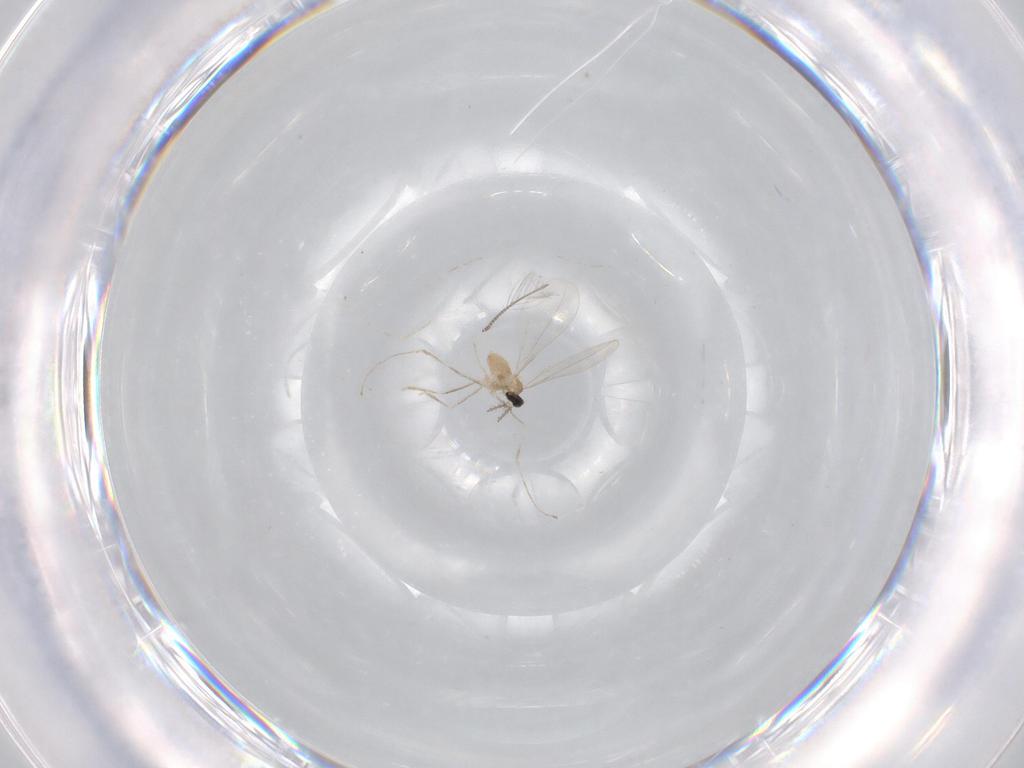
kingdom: Animalia
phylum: Arthropoda
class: Insecta
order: Diptera
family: Cecidomyiidae
